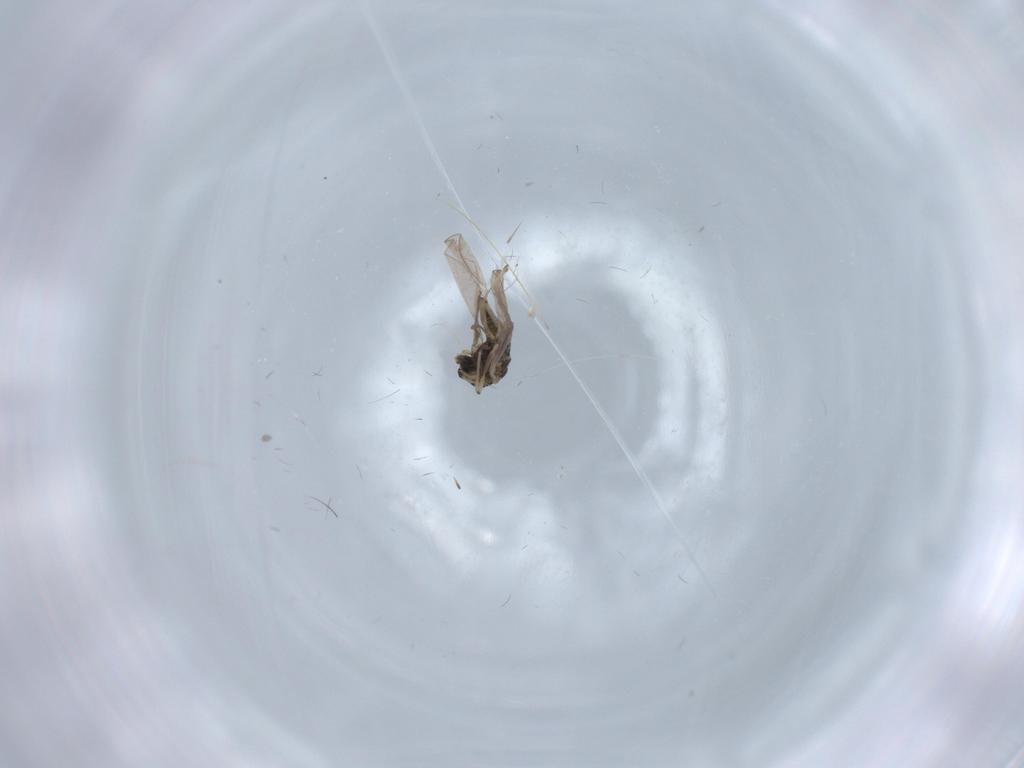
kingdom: Animalia
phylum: Arthropoda
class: Insecta
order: Diptera
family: Chironomidae
